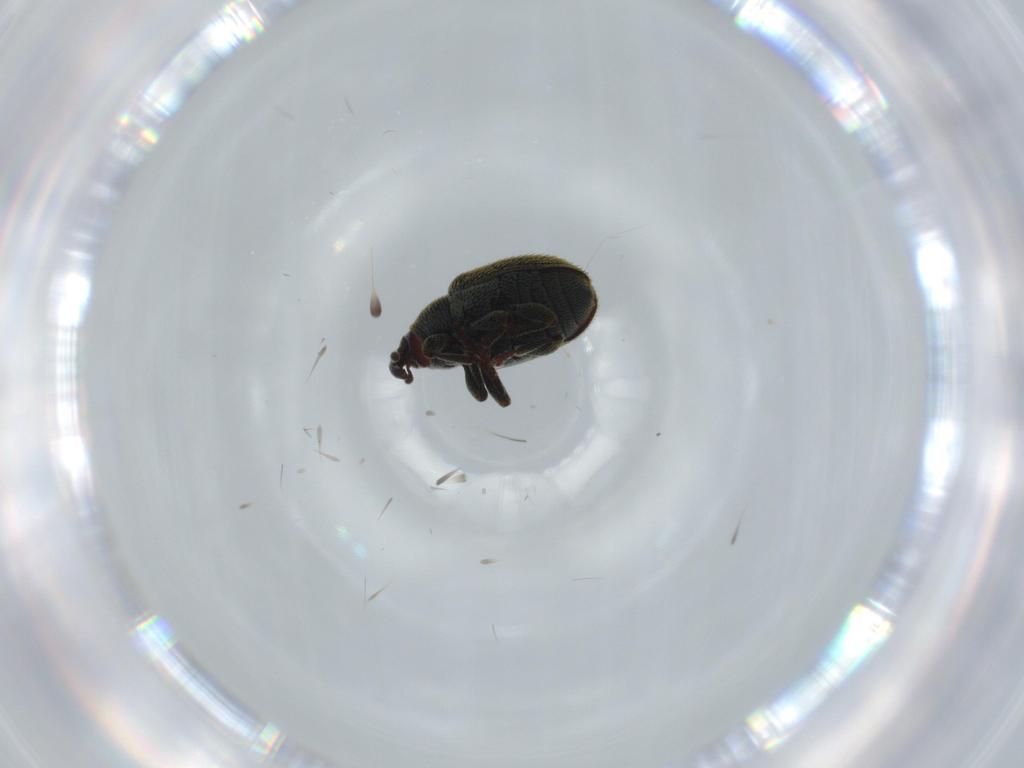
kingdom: Animalia
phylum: Arthropoda
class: Insecta
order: Coleoptera
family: Curculionidae
